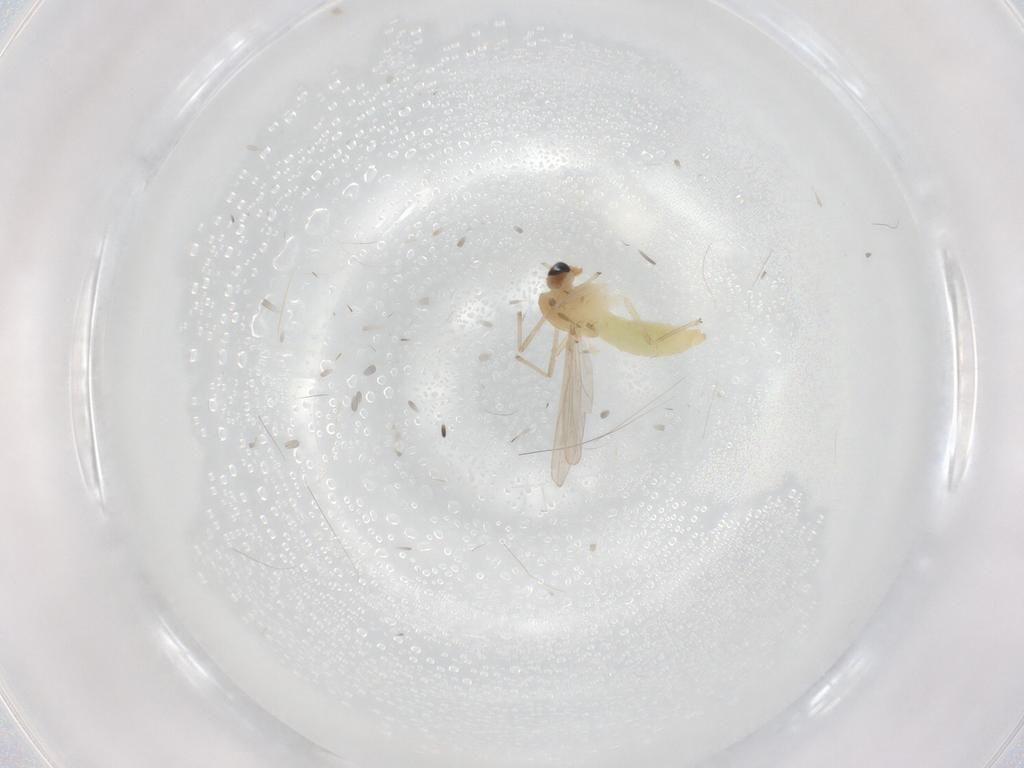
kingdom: Animalia
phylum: Arthropoda
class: Insecta
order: Diptera
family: Chironomidae
